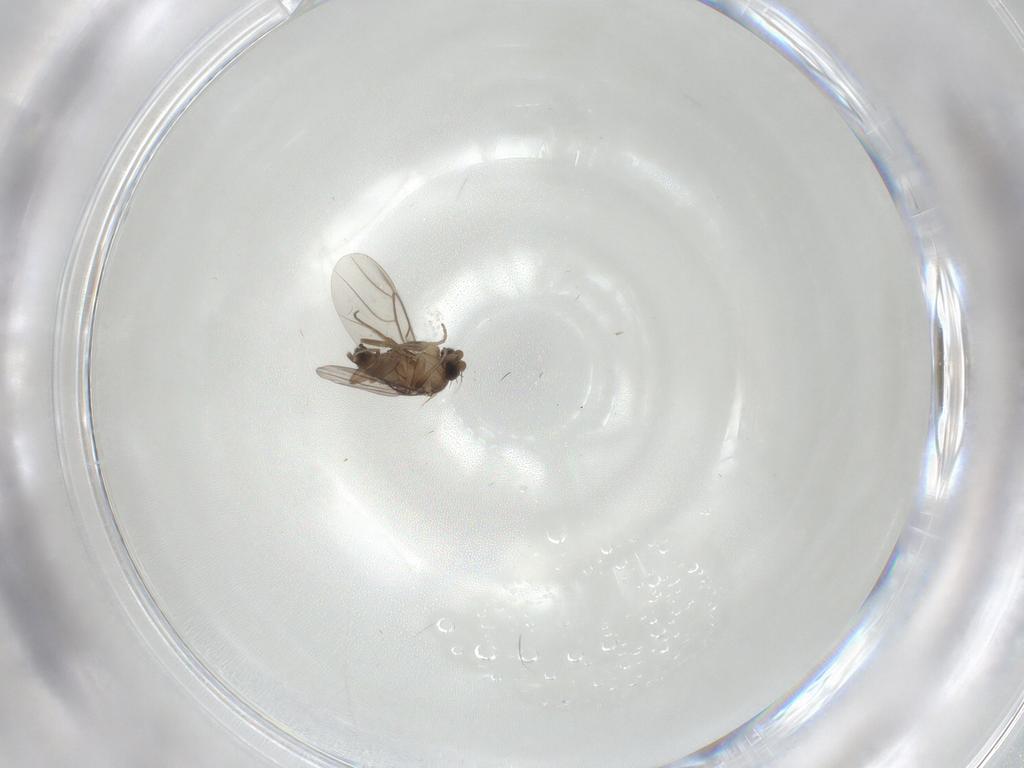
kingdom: Animalia
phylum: Arthropoda
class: Insecta
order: Diptera
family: Phoridae
